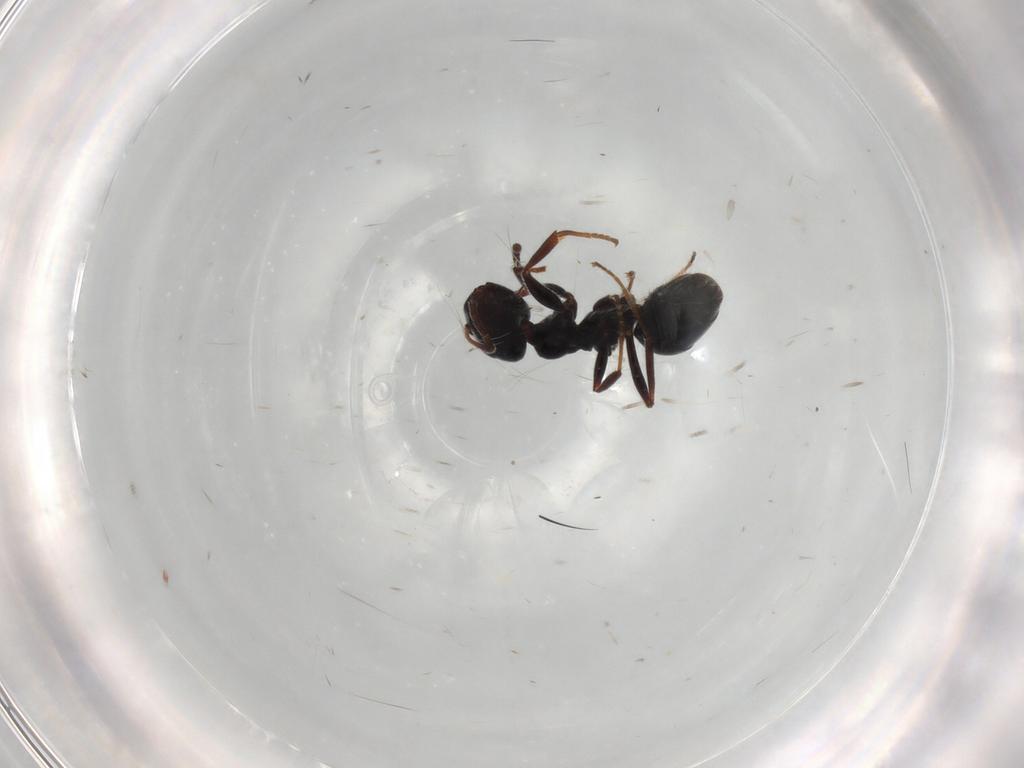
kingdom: Animalia
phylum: Arthropoda
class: Insecta
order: Hymenoptera
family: Formicidae
